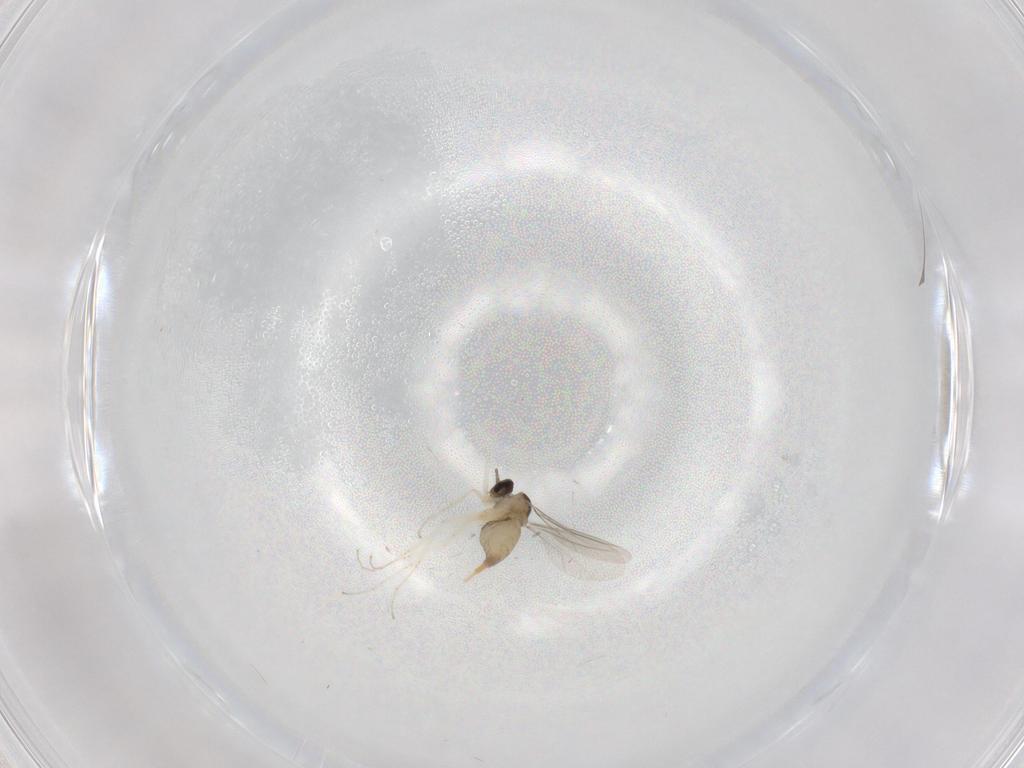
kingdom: Animalia
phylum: Arthropoda
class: Insecta
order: Diptera
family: Cecidomyiidae
